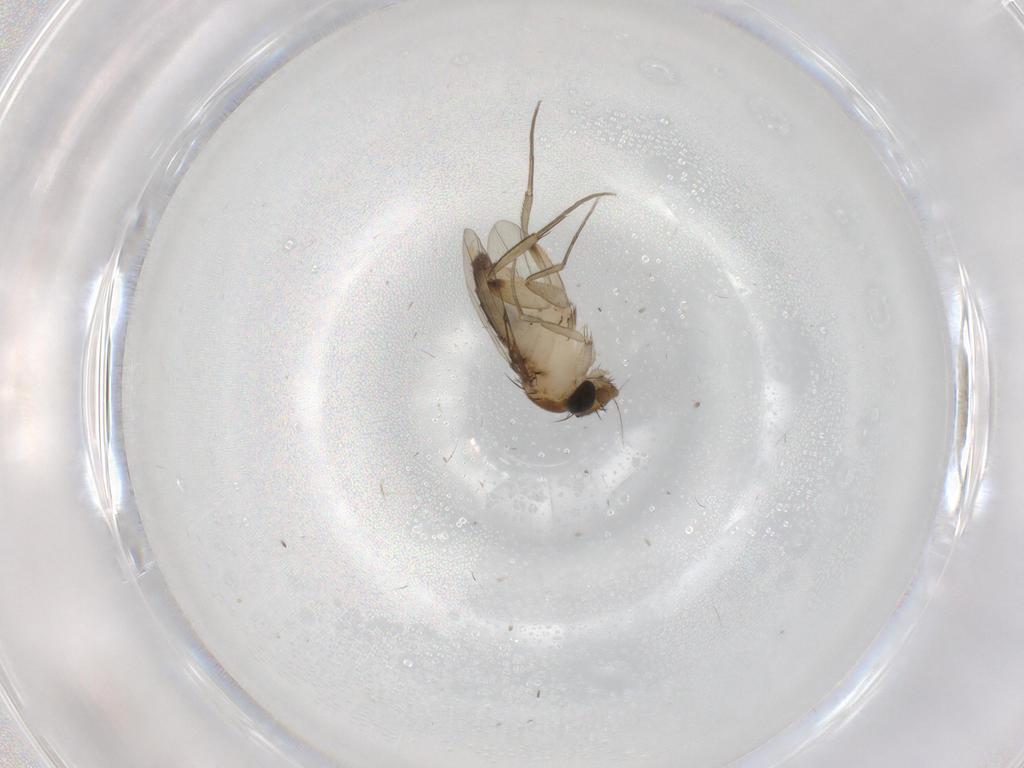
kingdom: Animalia
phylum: Arthropoda
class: Insecta
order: Diptera
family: Phoridae
